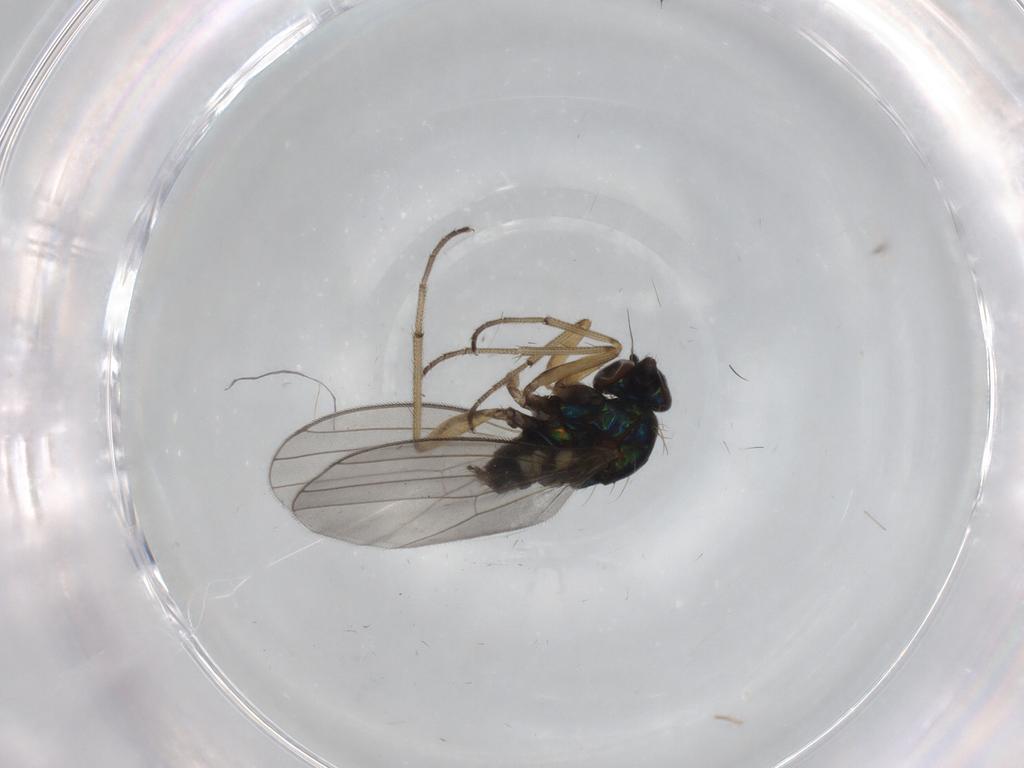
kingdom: Animalia
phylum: Arthropoda
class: Insecta
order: Diptera
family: Dolichopodidae
